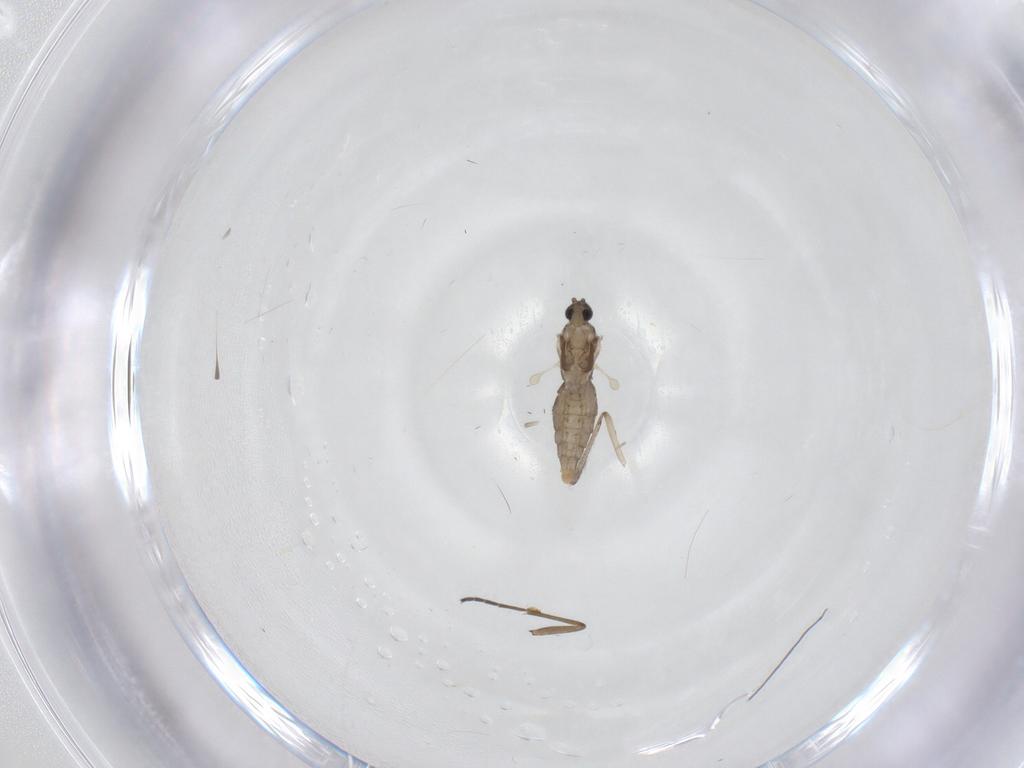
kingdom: Animalia
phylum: Arthropoda
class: Insecta
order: Diptera
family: Sciaridae
